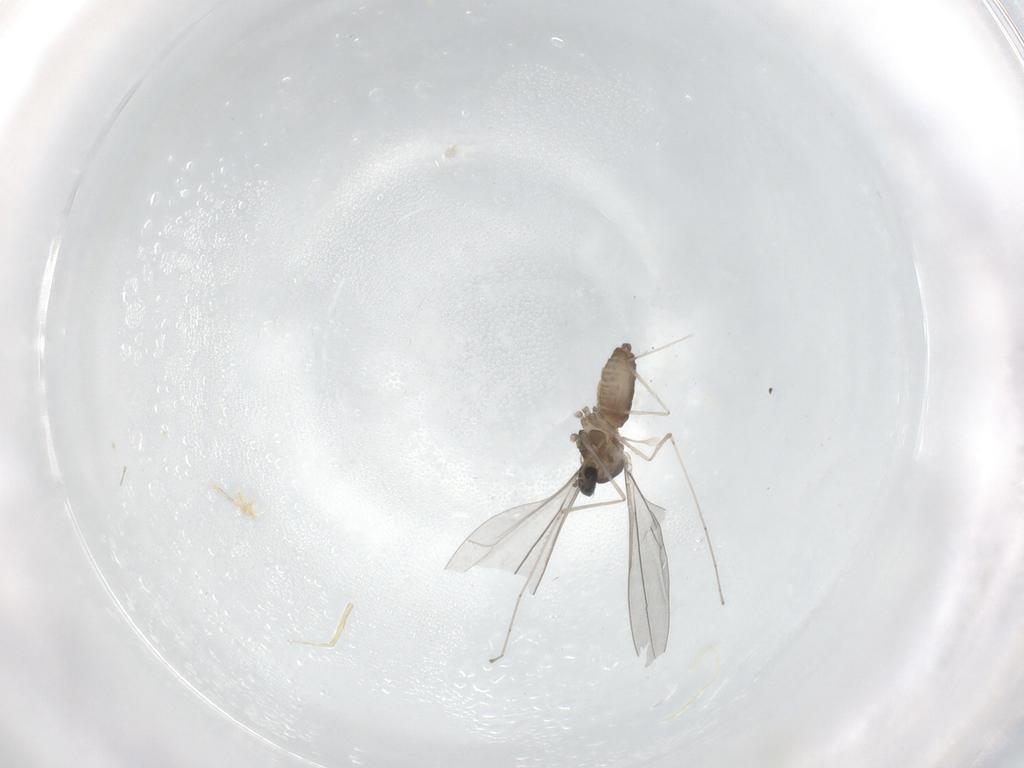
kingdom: Animalia
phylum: Arthropoda
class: Insecta
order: Diptera
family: Cecidomyiidae
